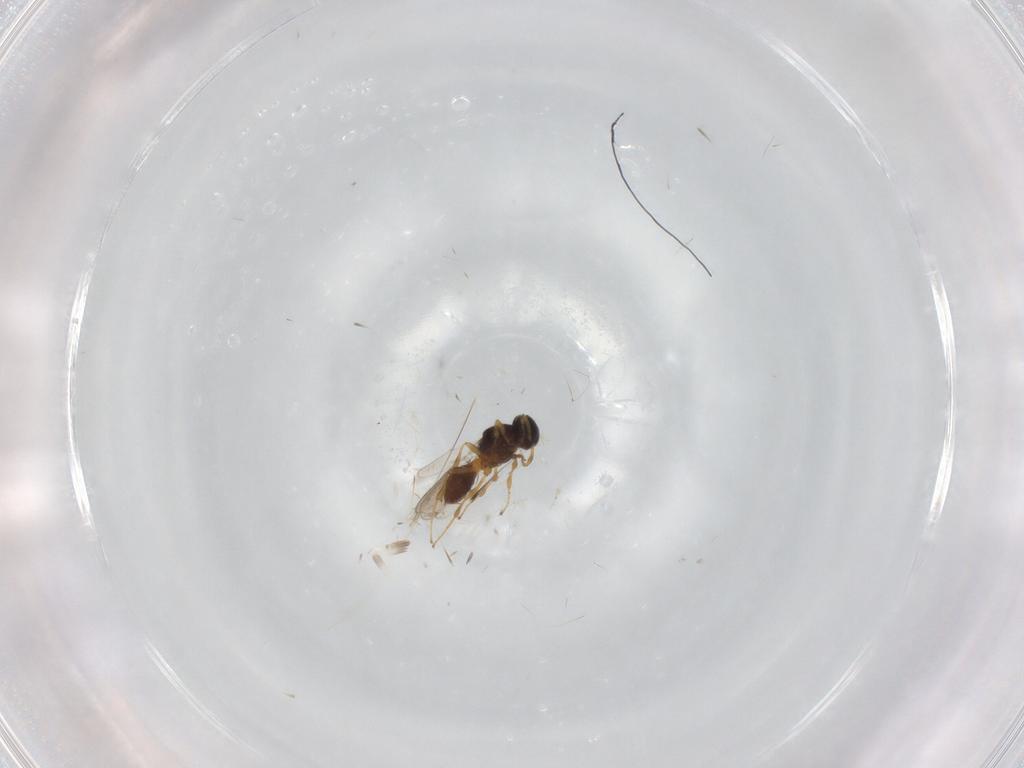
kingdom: Animalia
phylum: Arthropoda
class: Insecta
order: Hymenoptera
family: Platygastridae
